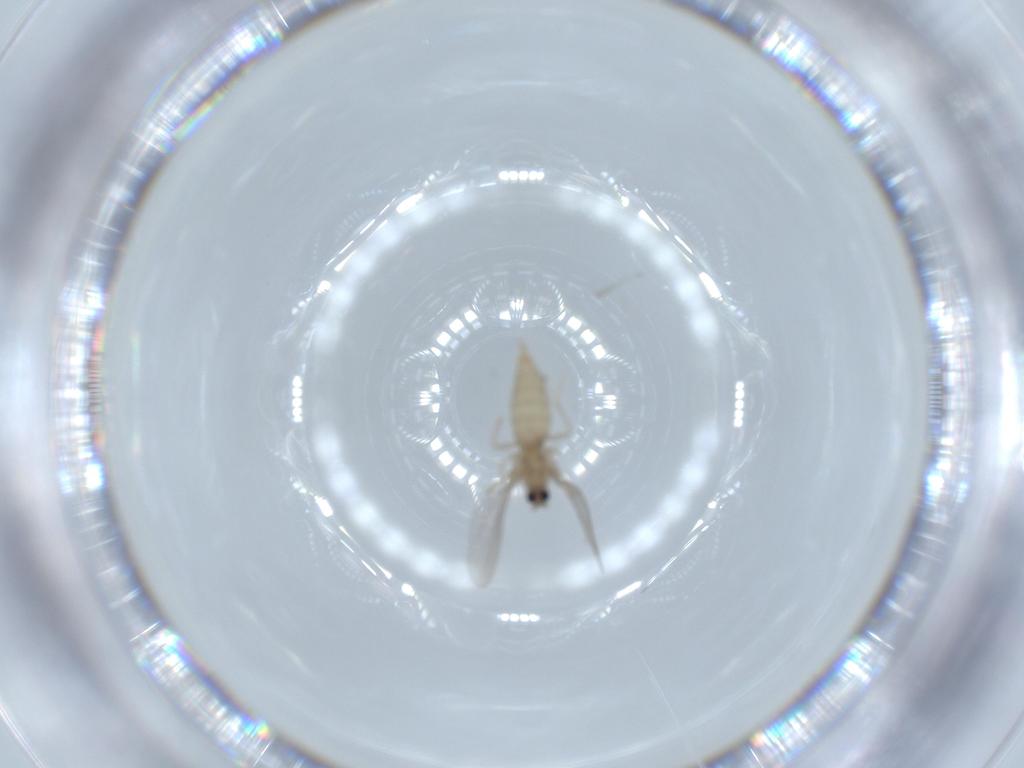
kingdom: Animalia
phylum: Arthropoda
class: Insecta
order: Diptera
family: Cecidomyiidae
